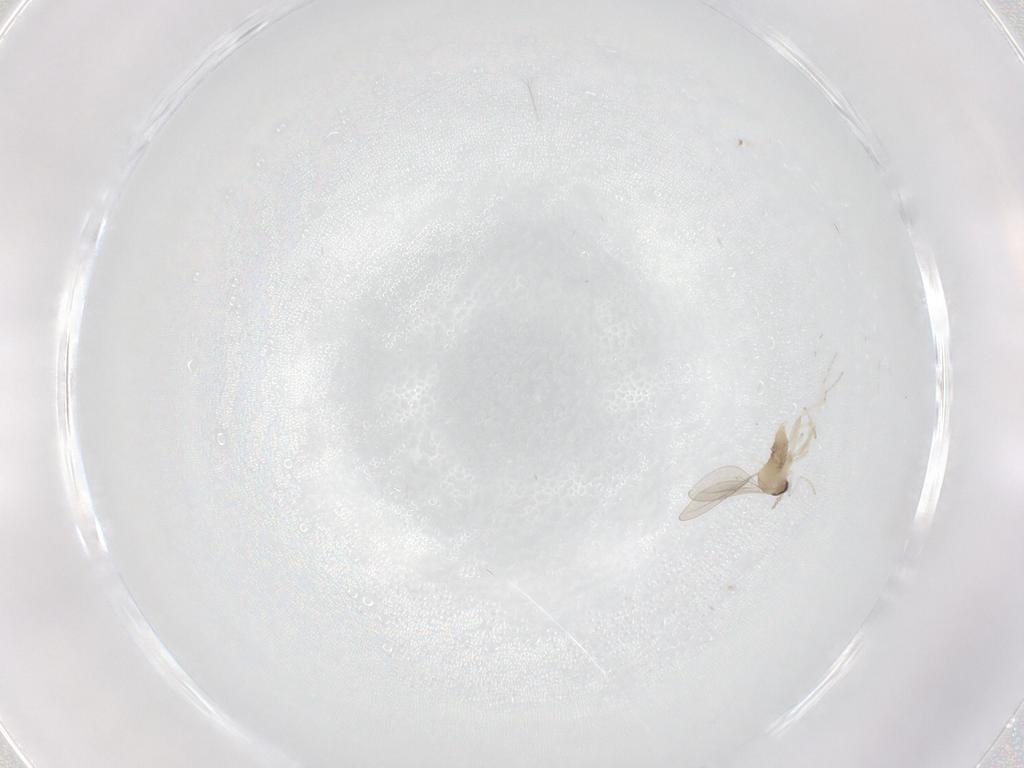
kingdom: Animalia
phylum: Arthropoda
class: Insecta
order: Diptera
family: Cecidomyiidae
